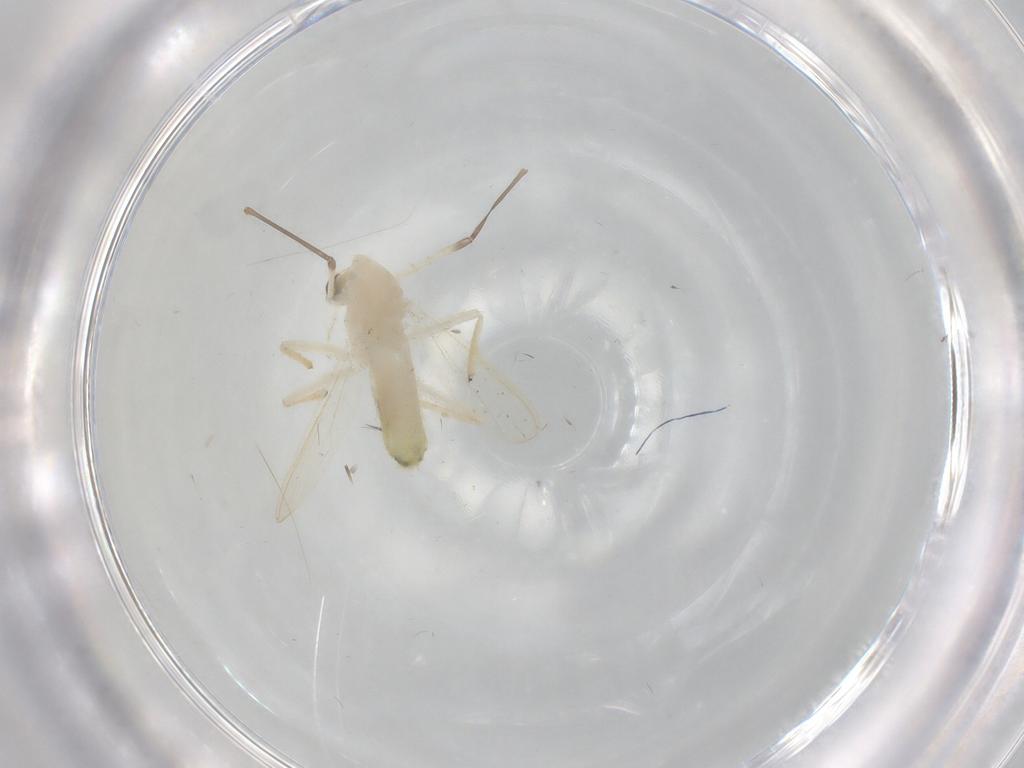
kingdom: Animalia
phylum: Arthropoda
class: Insecta
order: Diptera
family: Chironomidae
